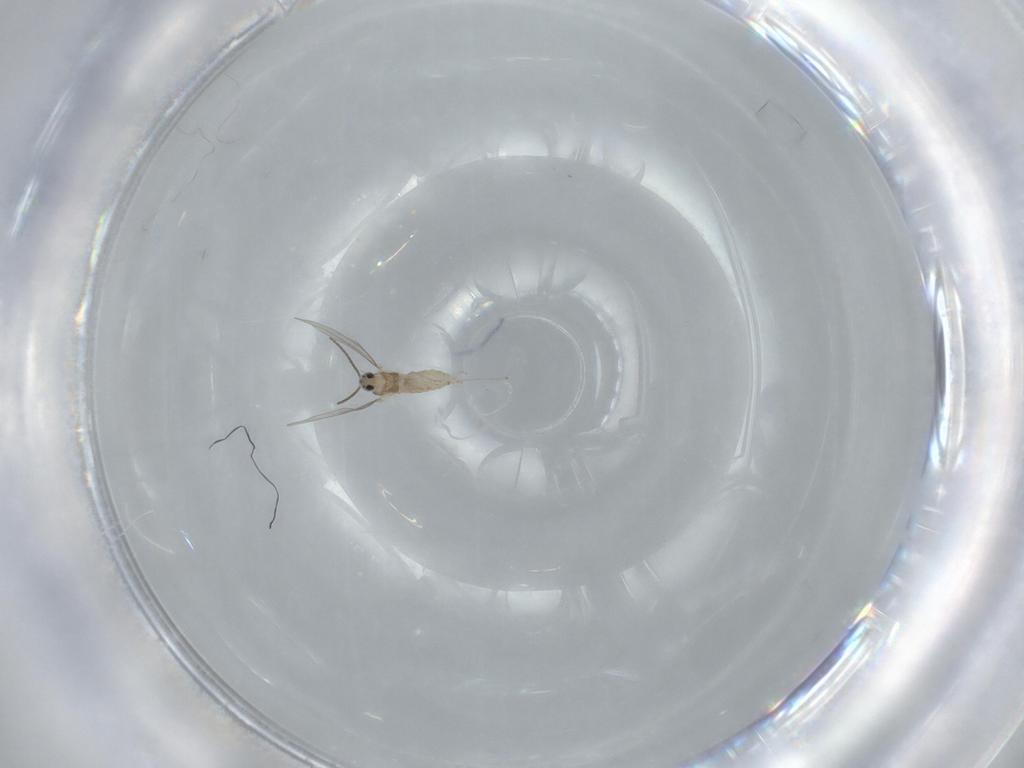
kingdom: Animalia
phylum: Arthropoda
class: Insecta
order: Diptera
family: Cecidomyiidae
